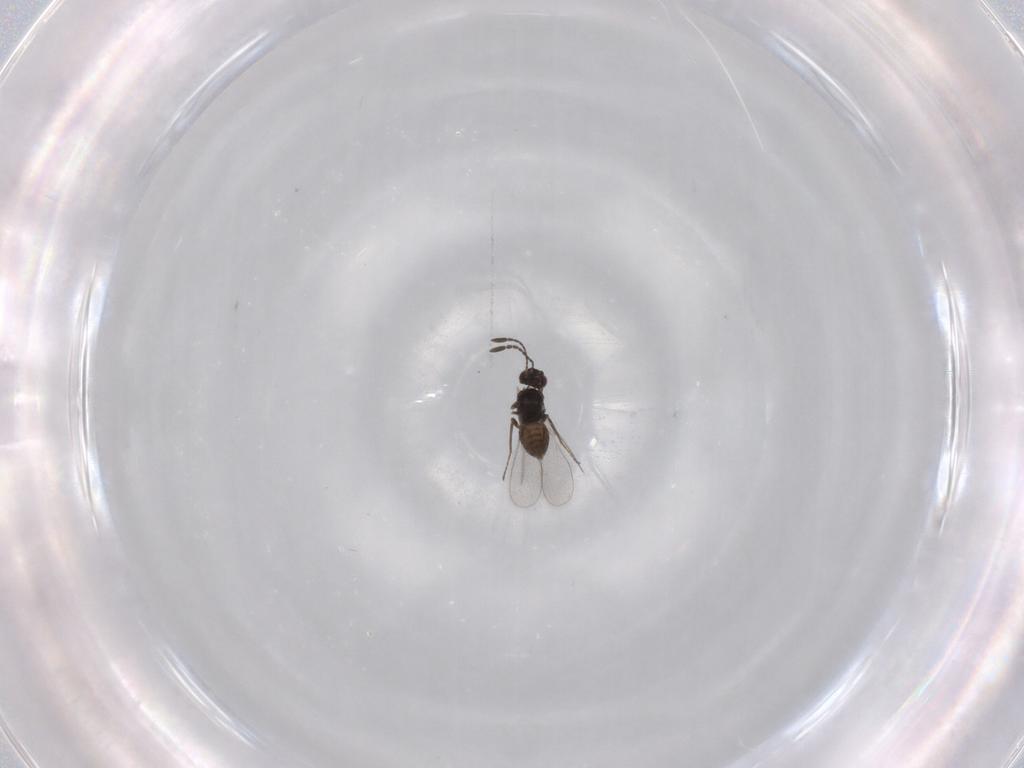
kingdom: Animalia
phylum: Arthropoda
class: Insecta
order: Hymenoptera
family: Mymaridae
